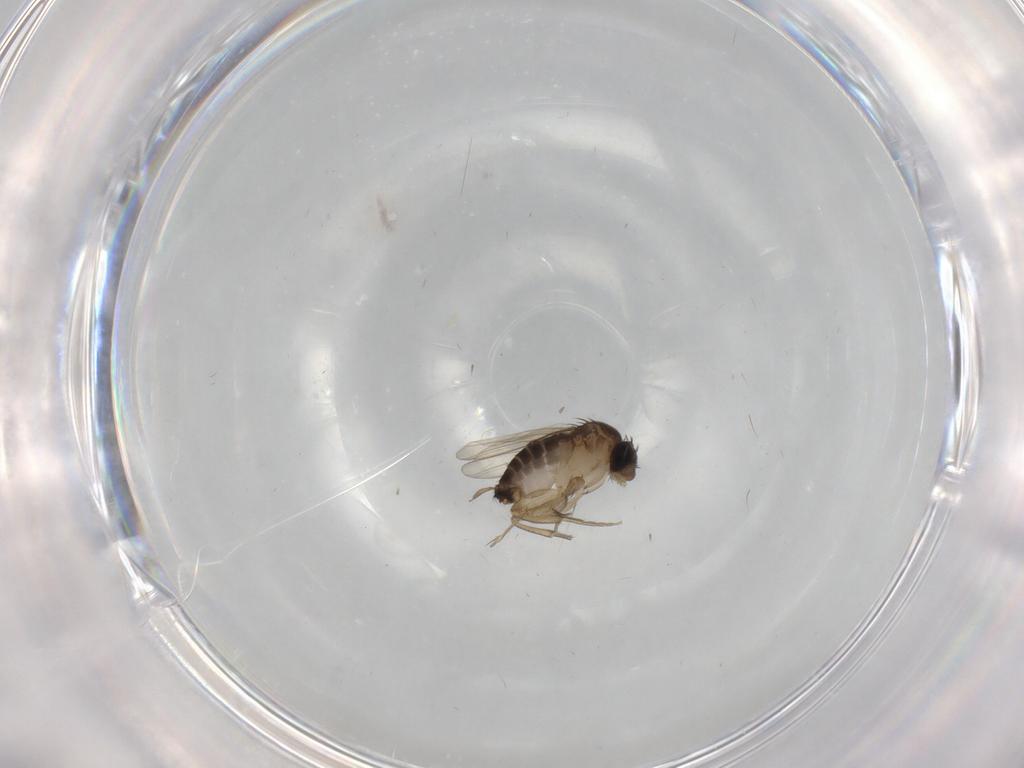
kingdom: Animalia
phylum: Arthropoda
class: Insecta
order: Diptera
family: Phoridae
